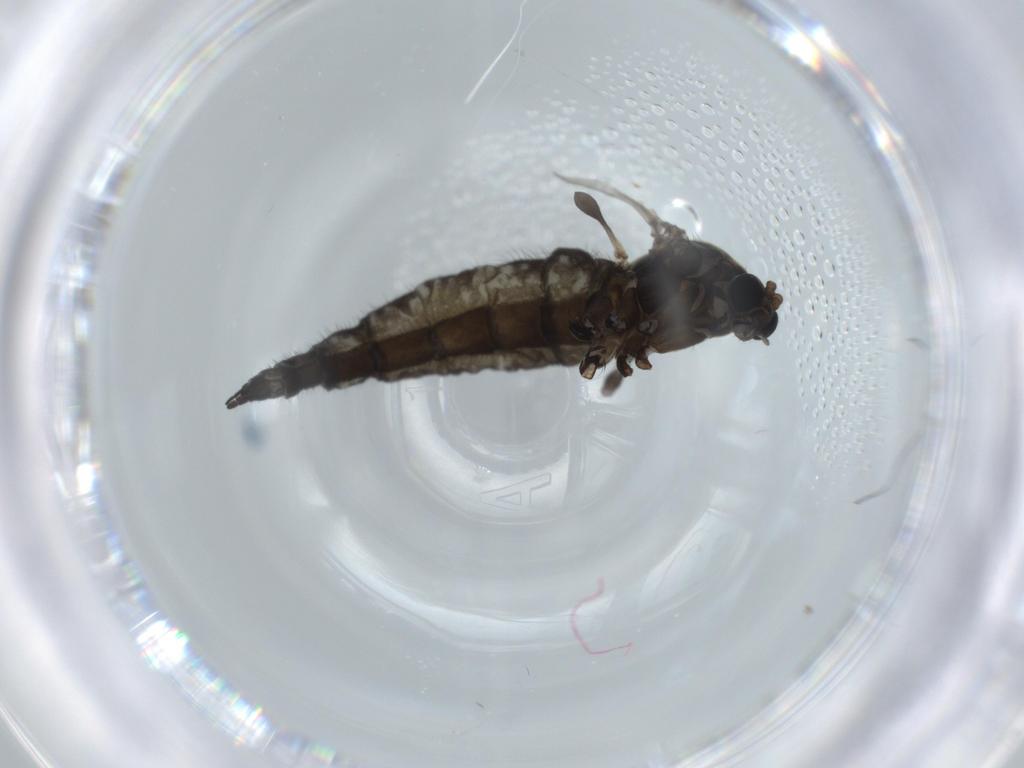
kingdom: Animalia
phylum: Arthropoda
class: Insecta
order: Diptera
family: Sciaridae
